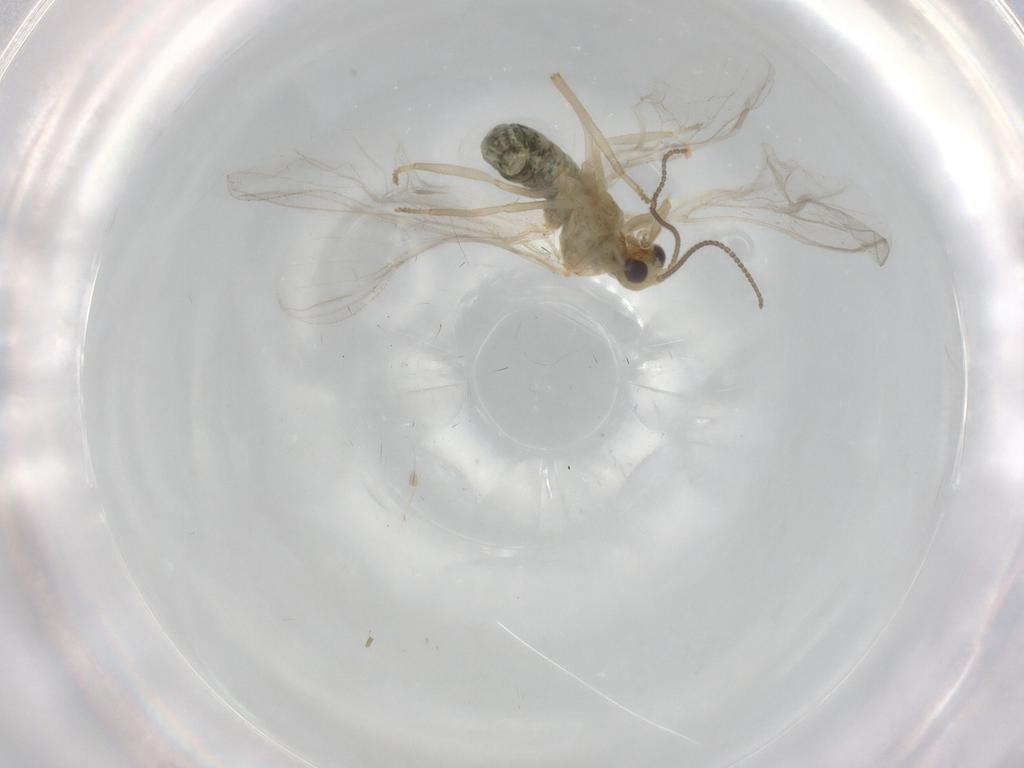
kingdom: Animalia
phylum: Arthropoda
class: Insecta
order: Neuroptera
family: Coniopterygidae
